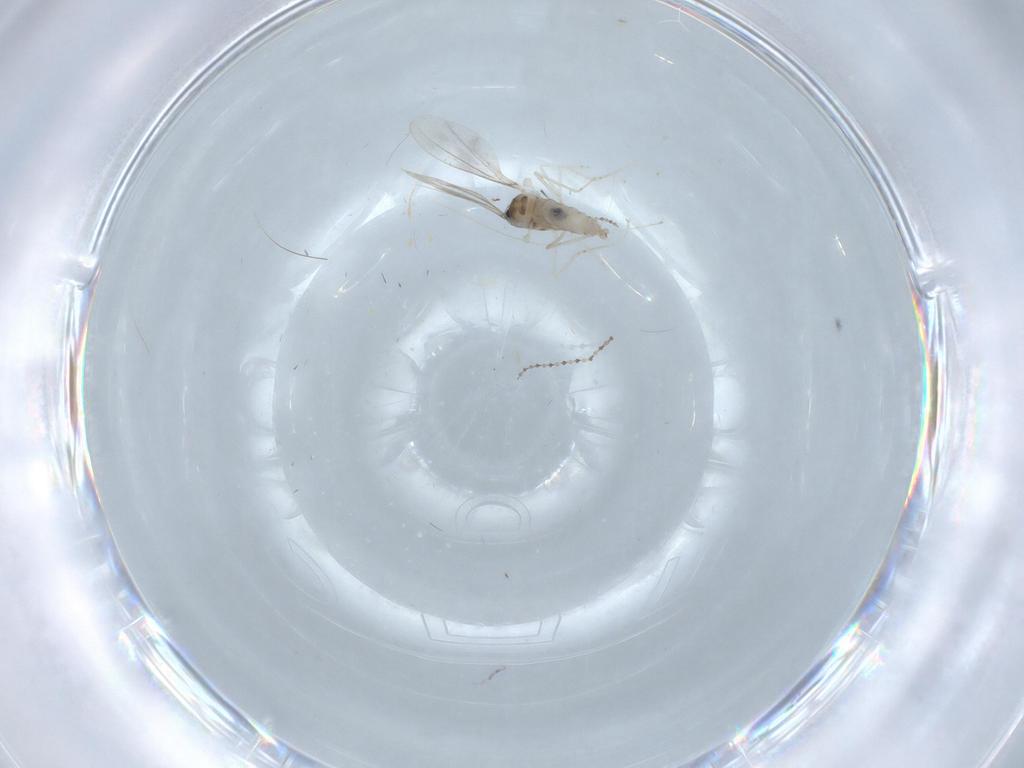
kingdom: Animalia
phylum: Arthropoda
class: Insecta
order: Diptera
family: Cecidomyiidae
